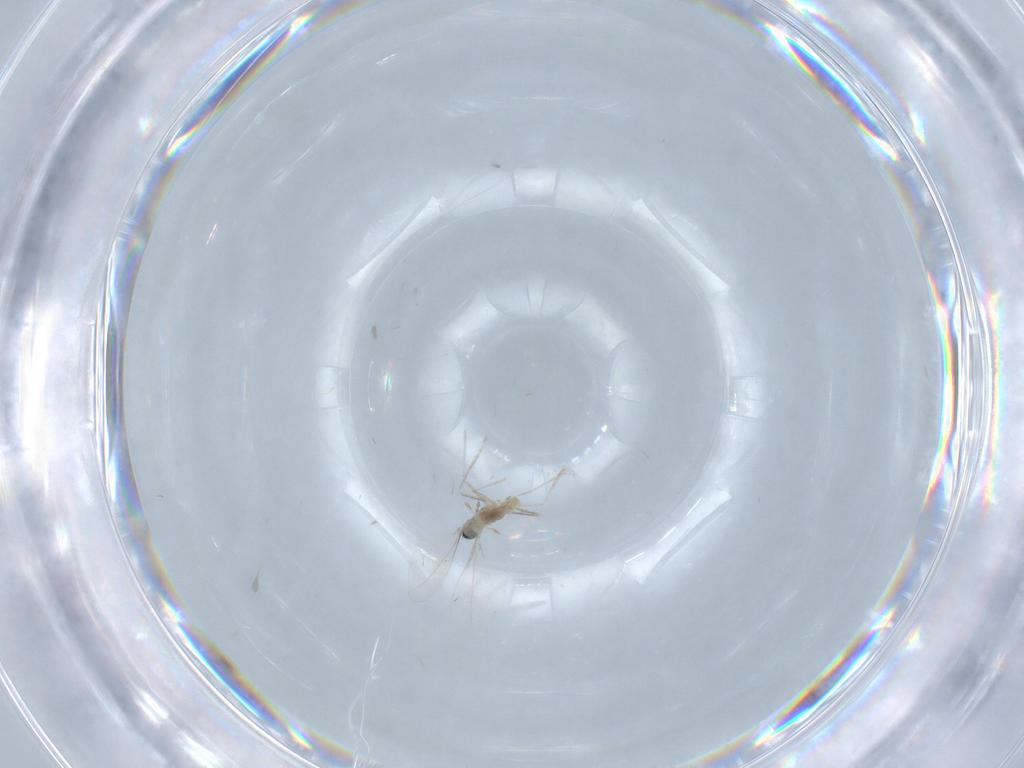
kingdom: Animalia
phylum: Arthropoda
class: Insecta
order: Diptera
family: Cecidomyiidae
